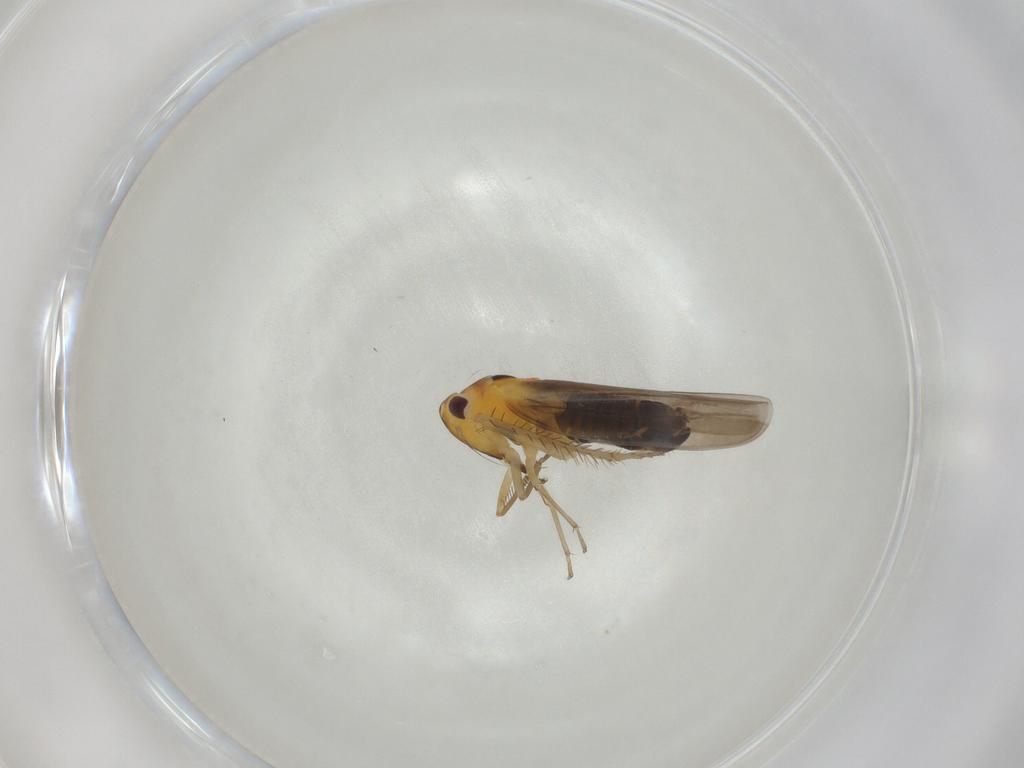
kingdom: Animalia
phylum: Arthropoda
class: Insecta
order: Hemiptera
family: Cicadellidae
